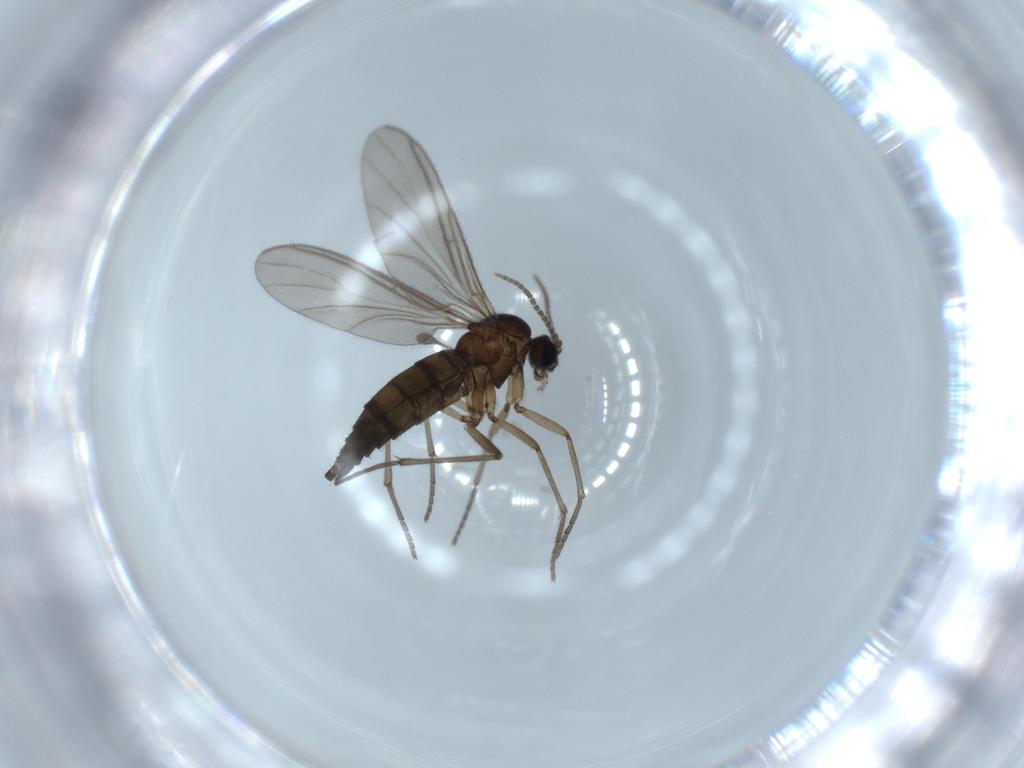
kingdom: Animalia
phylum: Arthropoda
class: Insecta
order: Diptera
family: Sciaridae
